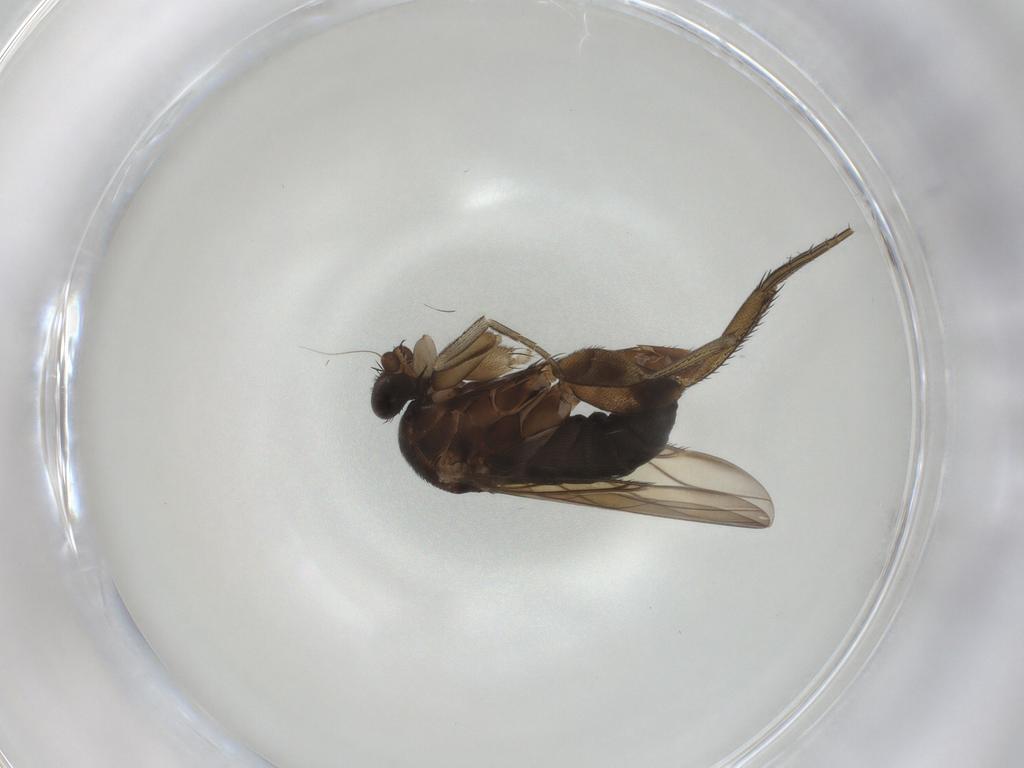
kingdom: Animalia
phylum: Arthropoda
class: Insecta
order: Diptera
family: Phoridae
